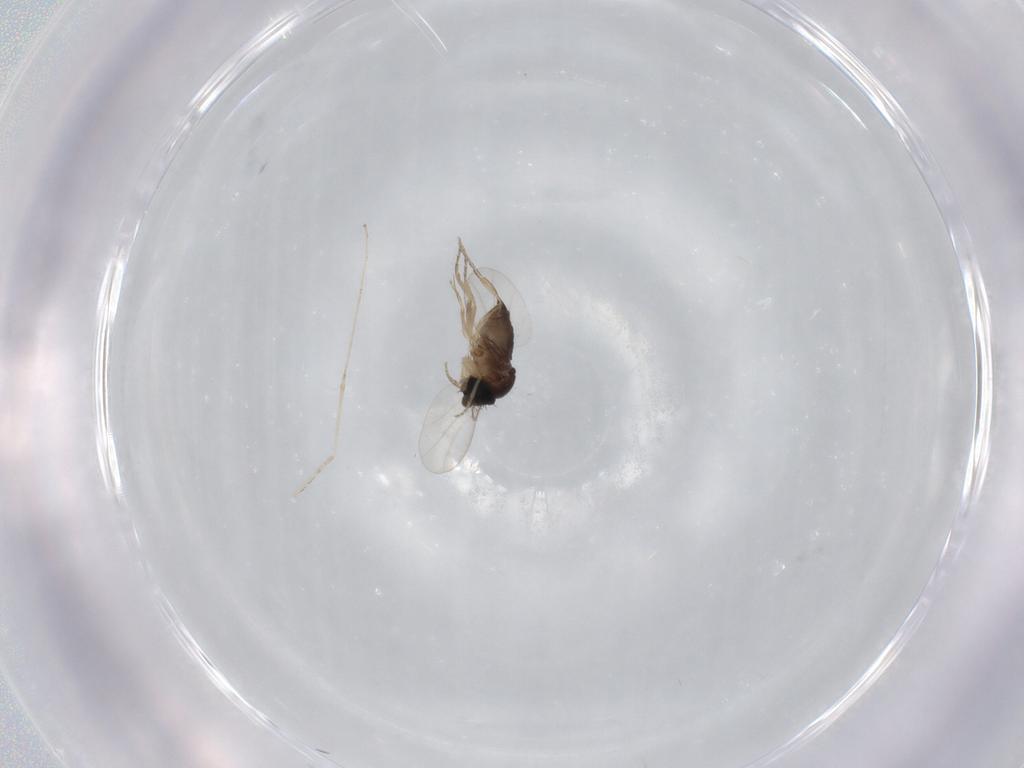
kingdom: Animalia
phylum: Arthropoda
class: Insecta
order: Diptera
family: Phoridae
